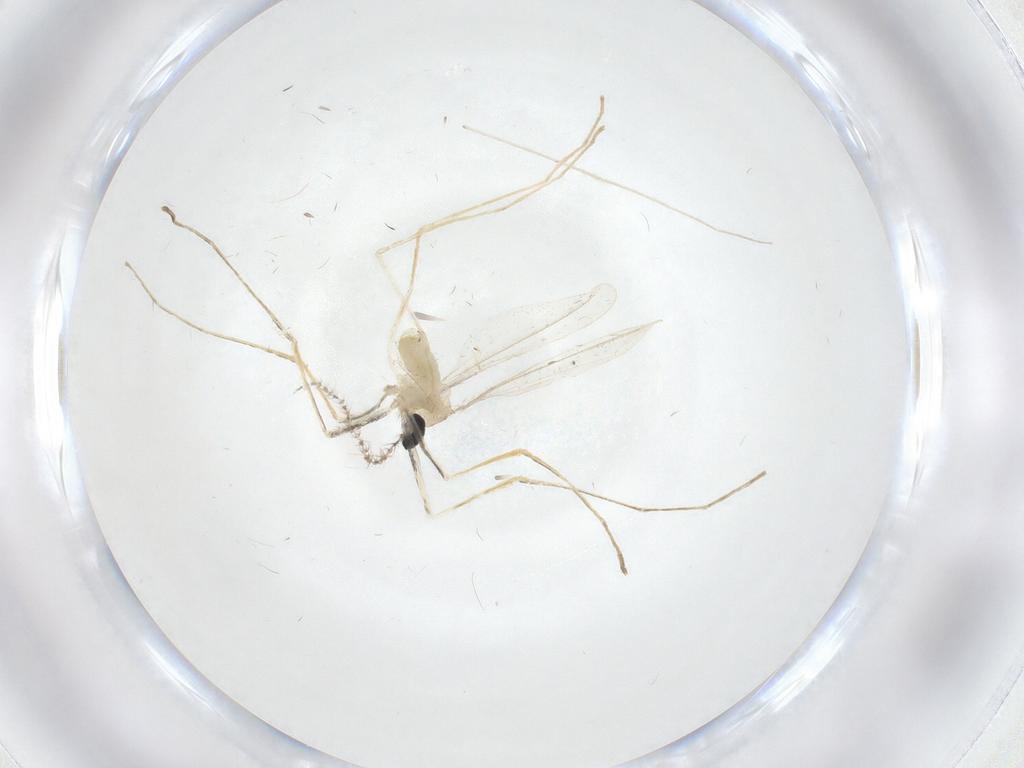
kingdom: Animalia
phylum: Arthropoda
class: Insecta
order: Diptera
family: Cecidomyiidae
